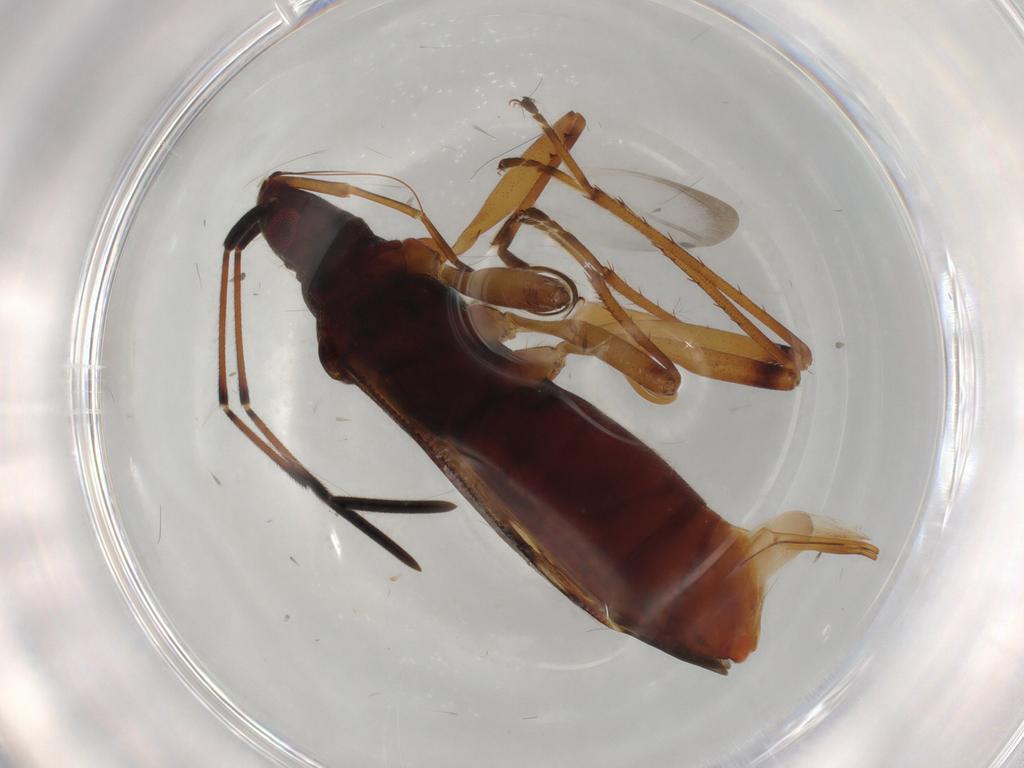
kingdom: Animalia
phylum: Arthropoda
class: Insecta
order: Hemiptera
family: Rhyparochromidae
